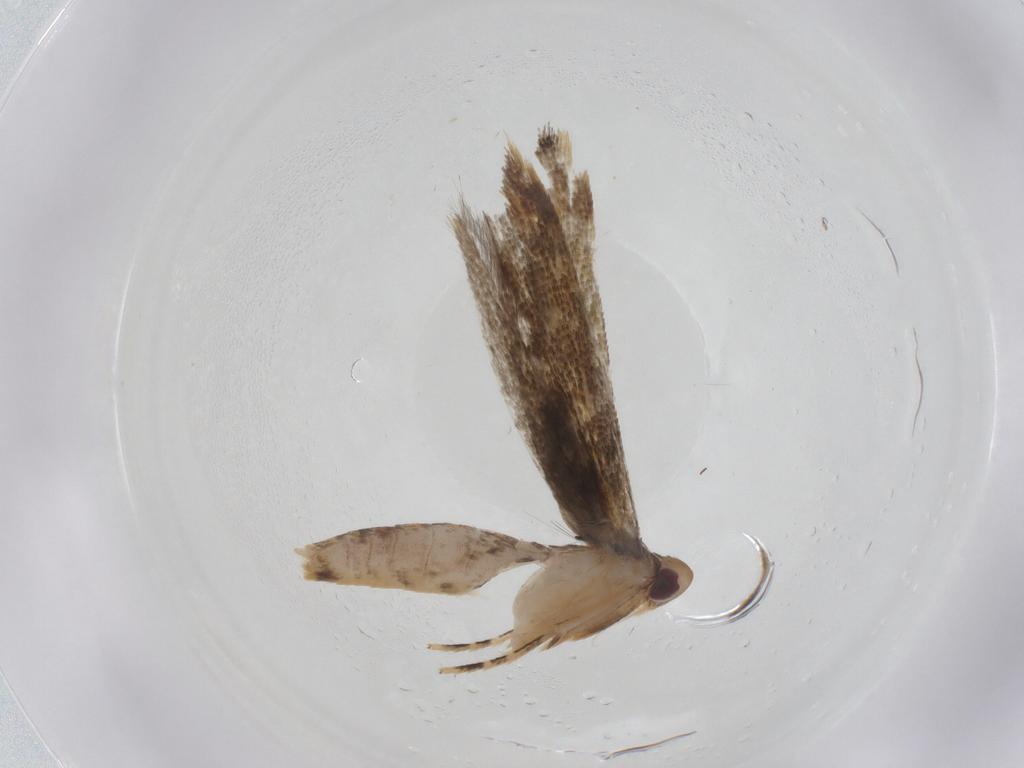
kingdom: Animalia
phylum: Arthropoda
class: Insecta
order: Lepidoptera
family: Momphidae
